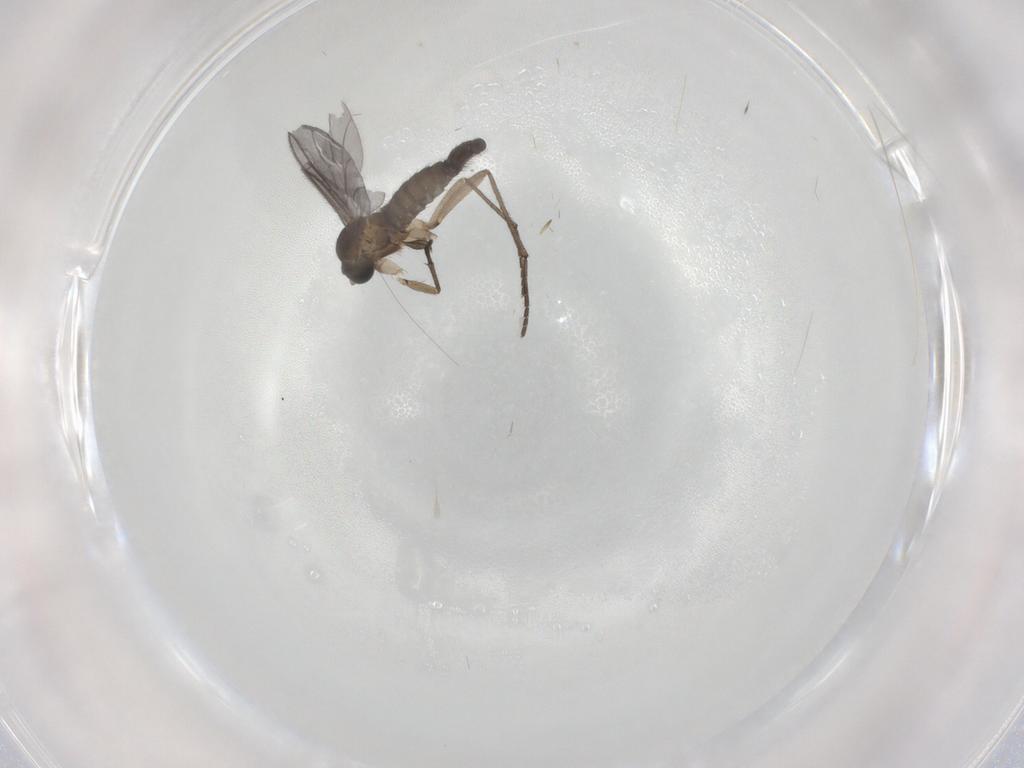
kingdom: Animalia
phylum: Arthropoda
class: Insecta
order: Diptera
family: Sciaridae
